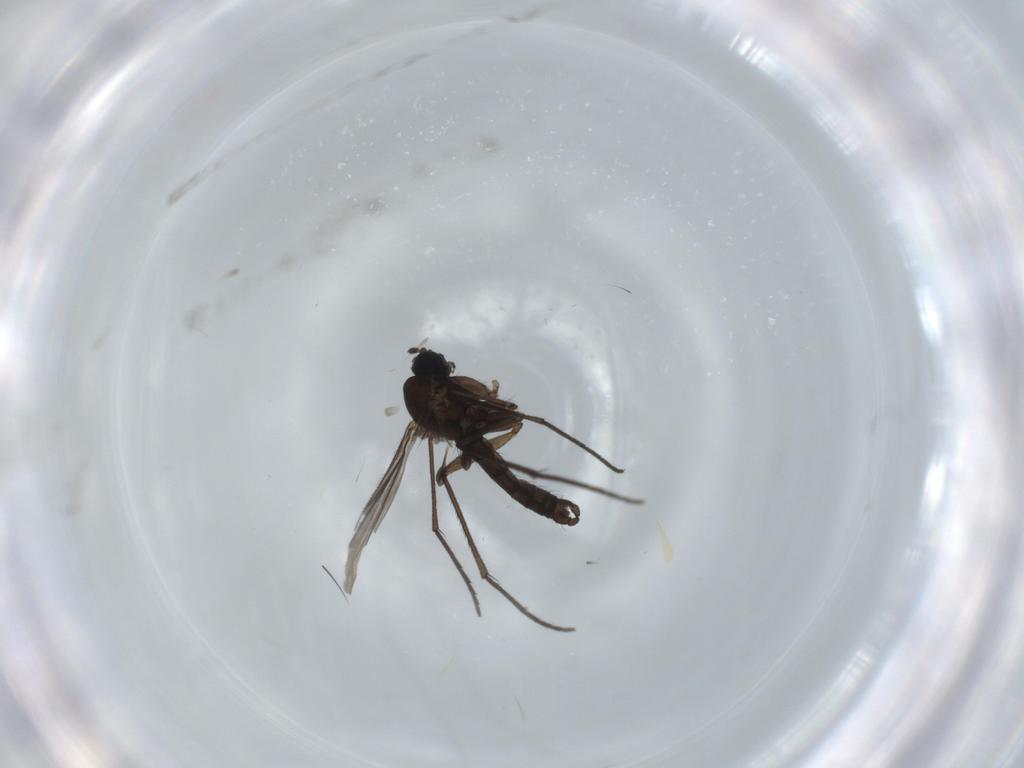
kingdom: Animalia
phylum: Arthropoda
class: Insecta
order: Diptera
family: Sciaridae
